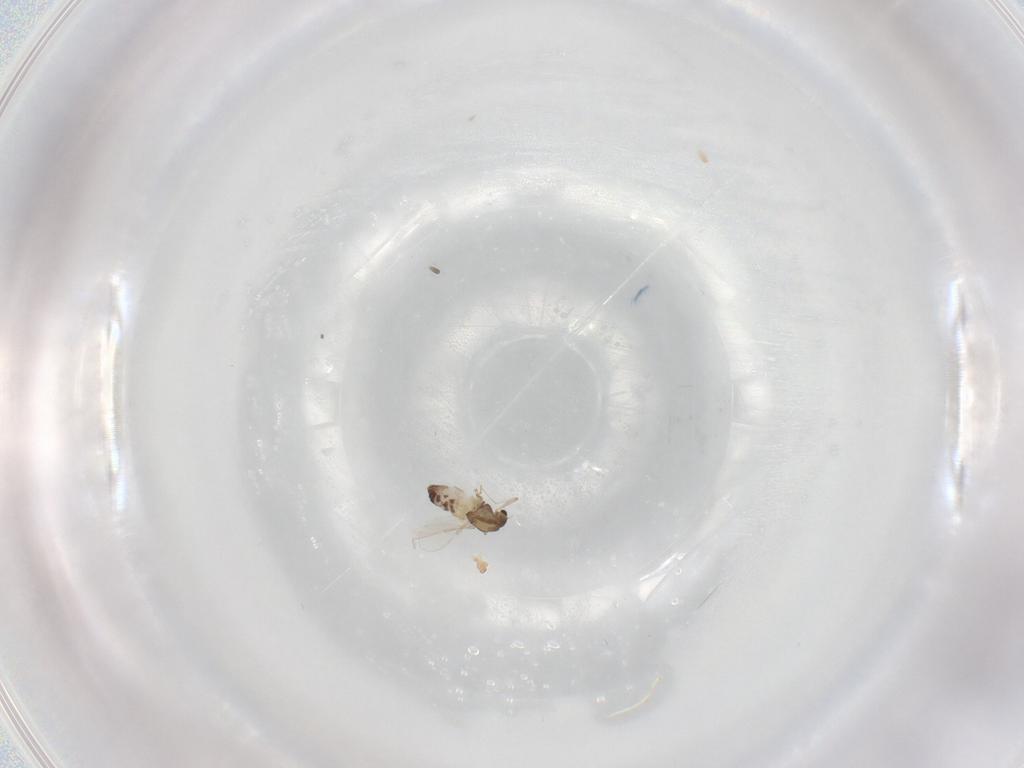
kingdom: Animalia
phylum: Arthropoda
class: Insecta
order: Diptera
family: Chironomidae
